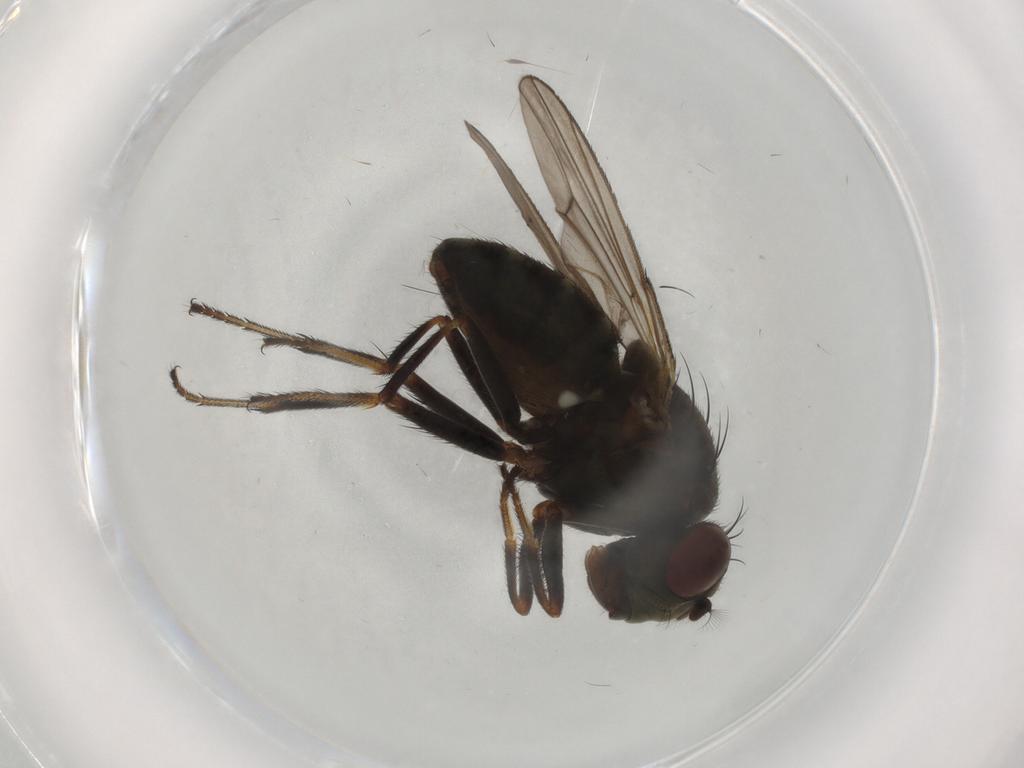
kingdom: Animalia
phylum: Arthropoda
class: Insecta
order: Diptera
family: Ephydridae
